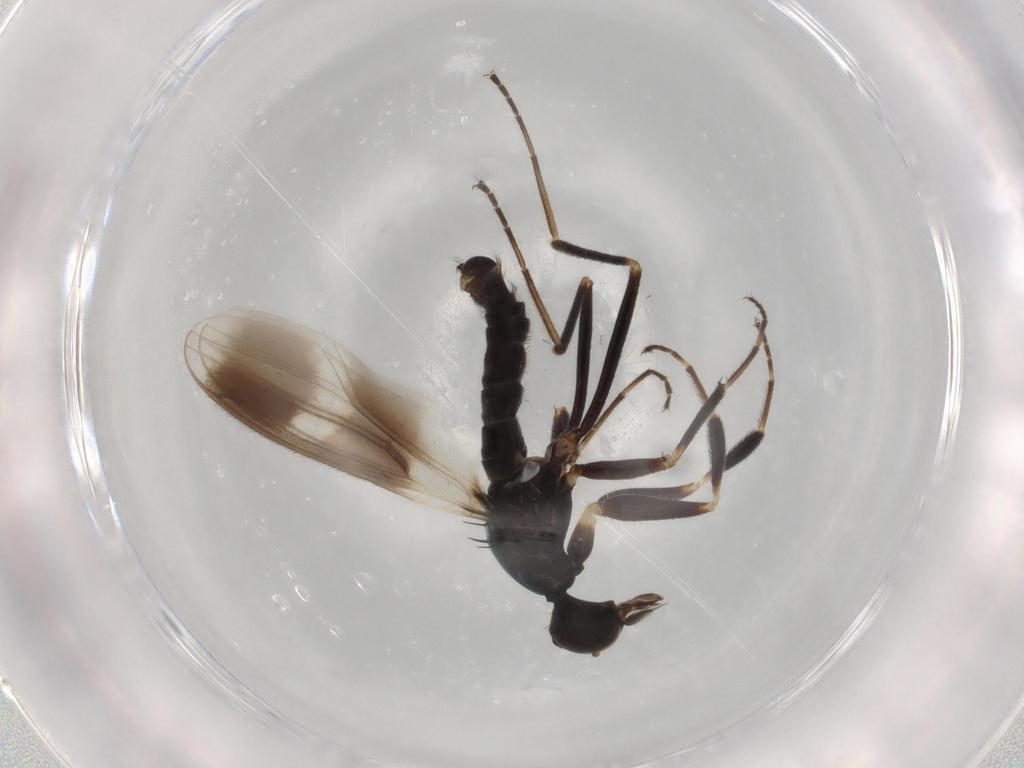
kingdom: Animalia
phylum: Arthropoda
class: Insecta
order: Diptera
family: Hybotidae
